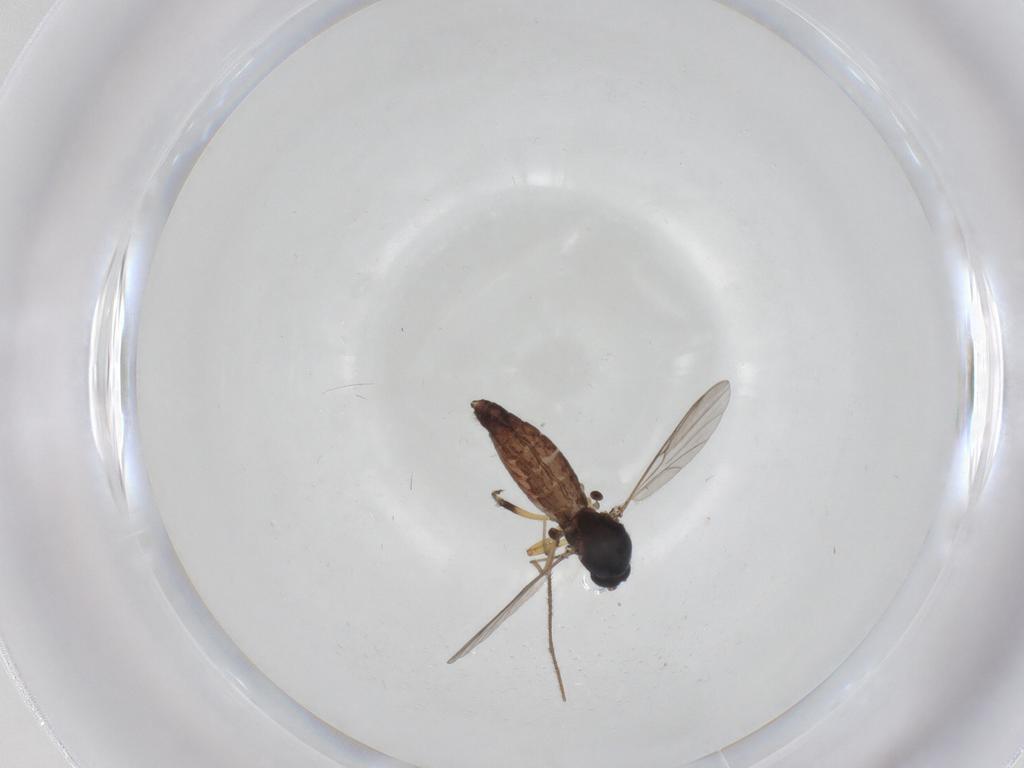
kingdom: Animalia
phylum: Arthropoda
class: Insecta
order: Diptera
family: Ceratopogonidae
